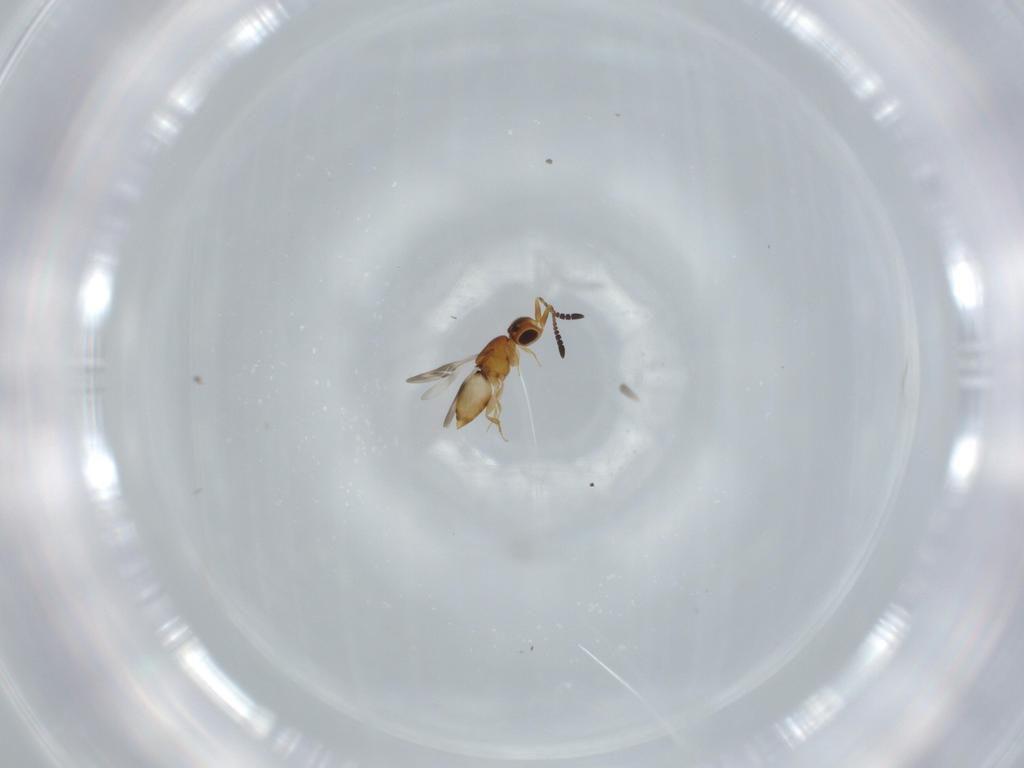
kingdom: Animalia
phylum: Arthropoda
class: Insecta
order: Hymenoptera
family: Ceraphronidae
